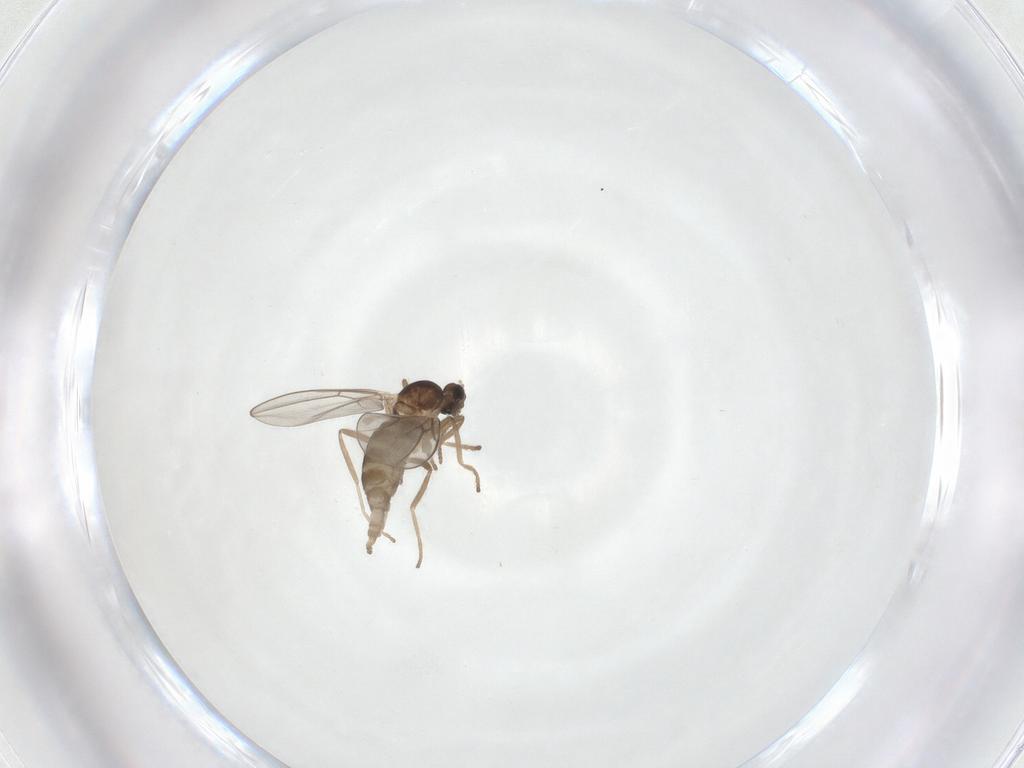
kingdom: Animalia
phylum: Arthropoda
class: Insecta
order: Diptera
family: Cecidomyiidae
